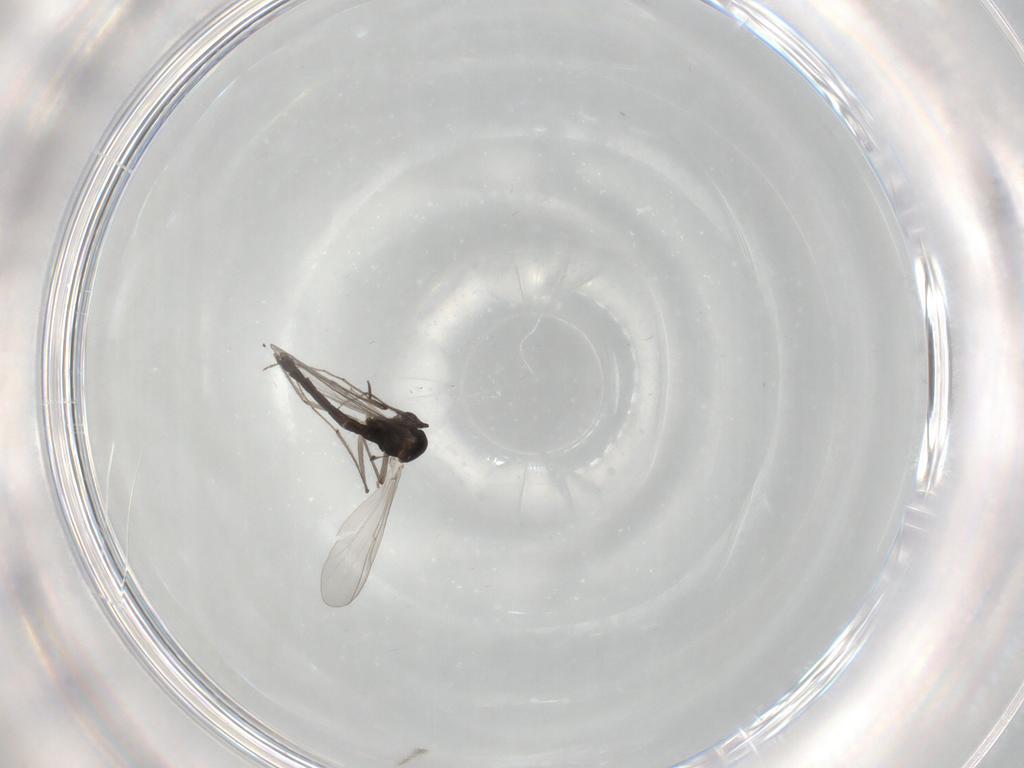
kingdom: Animalia
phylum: Arthropoda
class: Insecta
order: Diptera
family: Chironomidae
